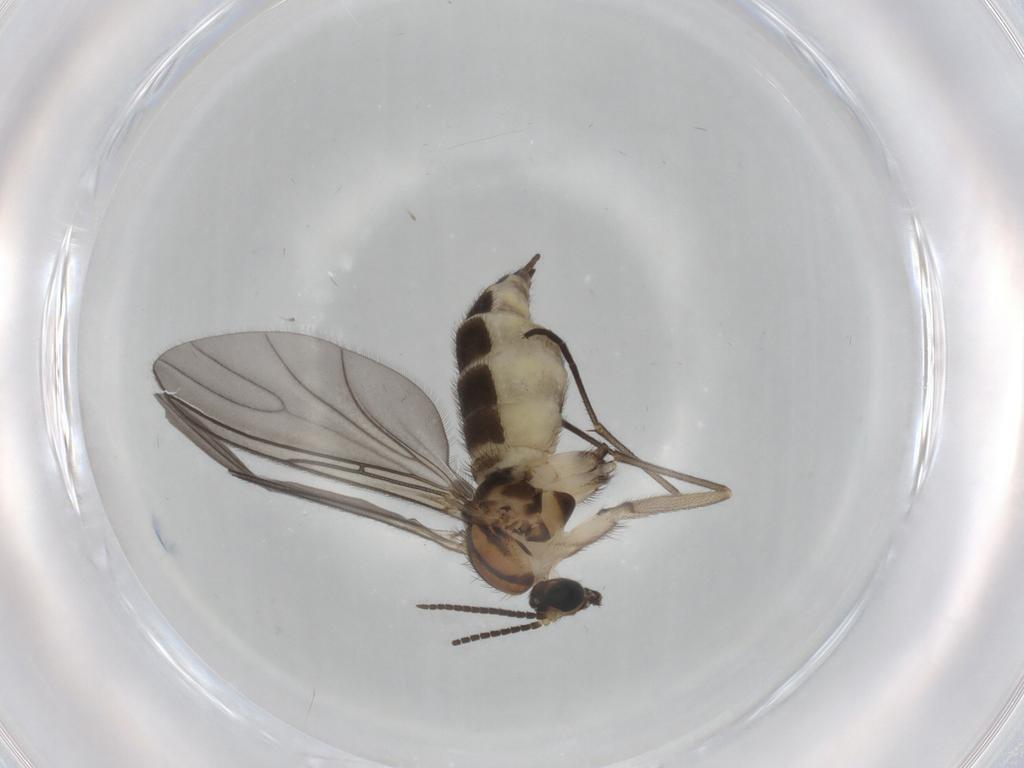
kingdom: Animalia
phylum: Arthropoda
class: Insecta
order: Diptera
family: Sciaridae
